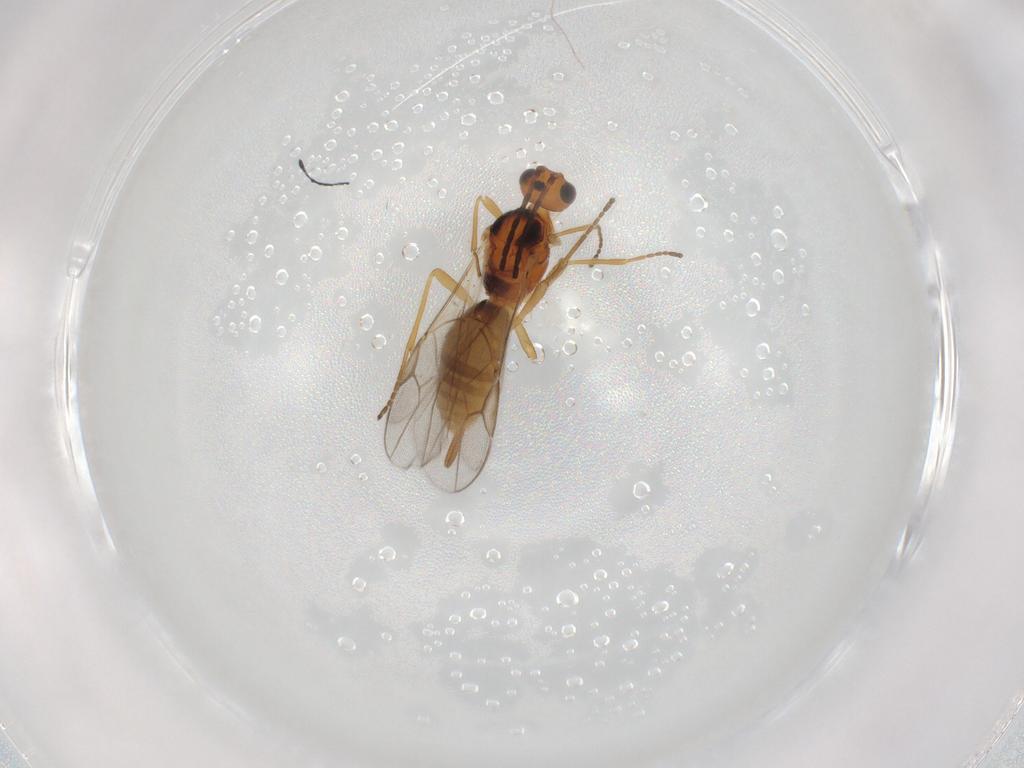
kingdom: Animalia
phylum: Arthropoda
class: Insecta
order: Hymenoptera
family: Braconidae
